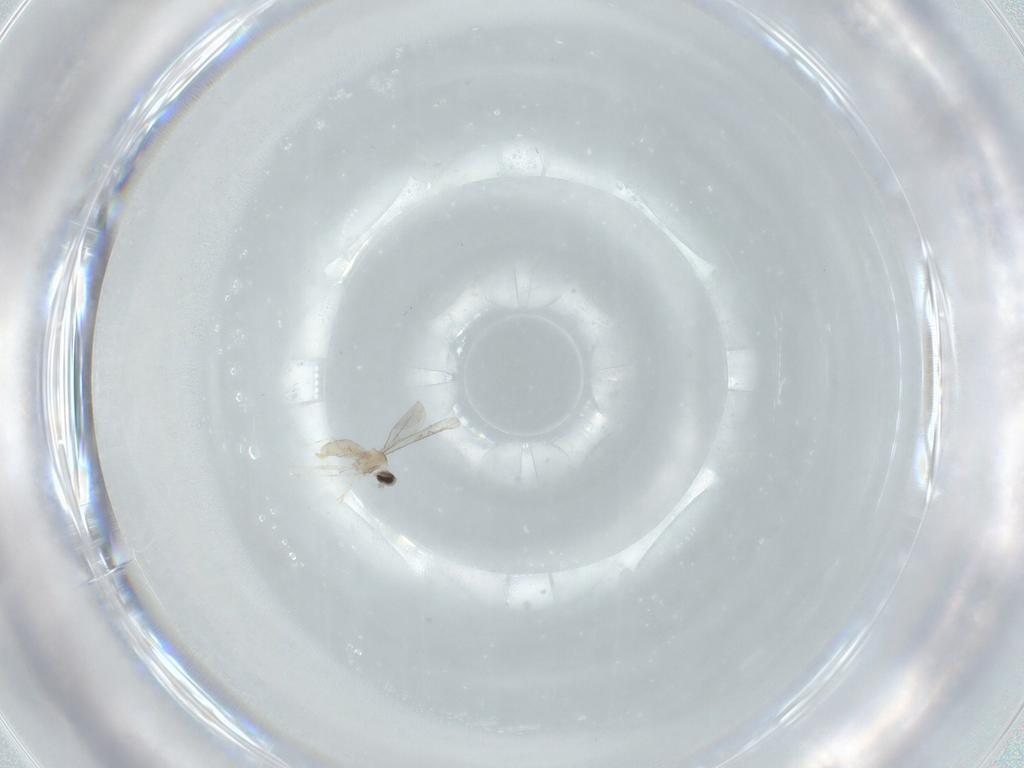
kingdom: Animalia
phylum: Arthropoda
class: Insecta
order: Diptera
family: Cecidomyiidae
